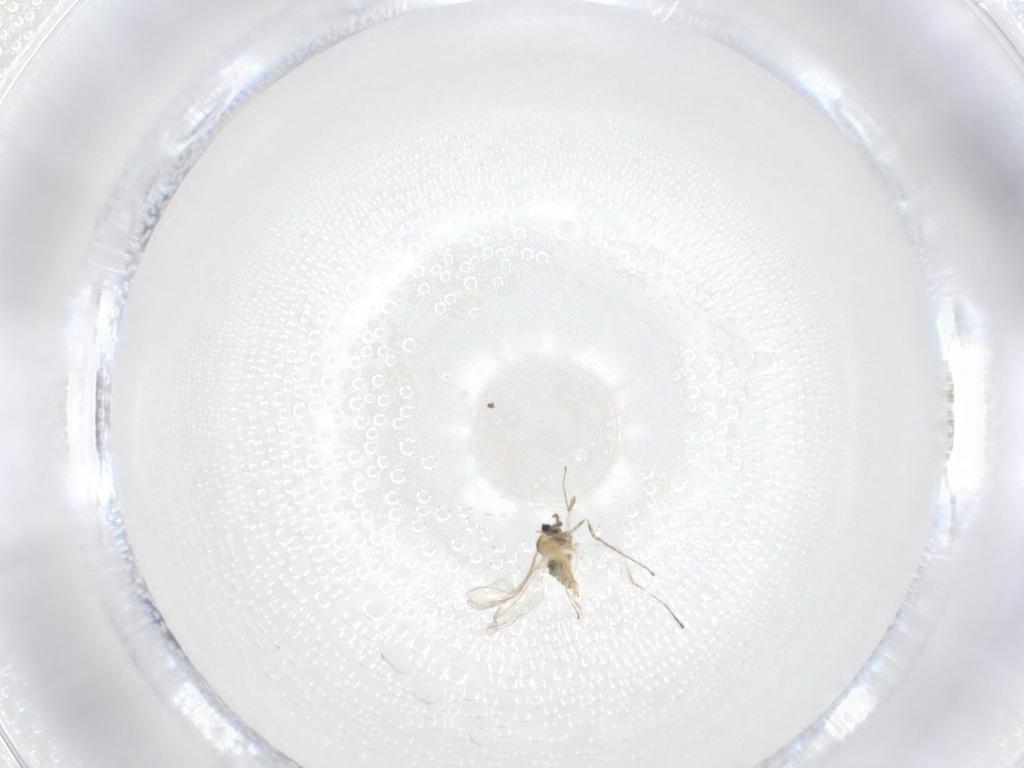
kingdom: Animalia
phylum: Arthropoda
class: Insecta
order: Diptera
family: Cecidomyiidae
